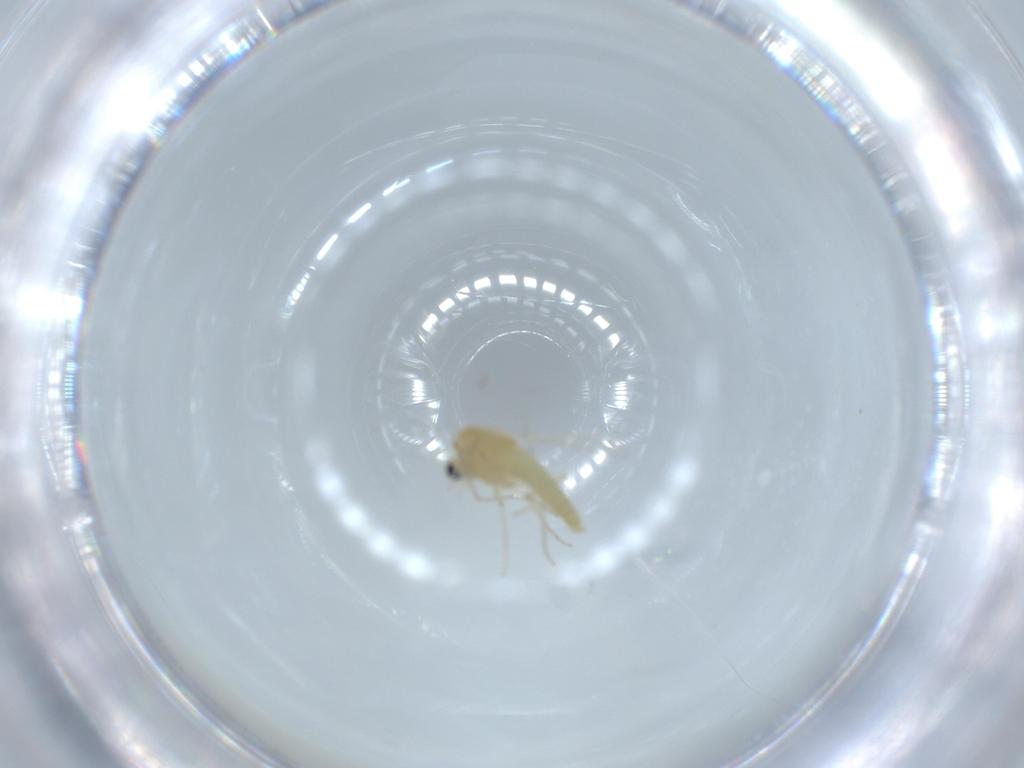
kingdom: Animalia
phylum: Arthropoda
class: Insecta
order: Diptera
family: Chironomidae
